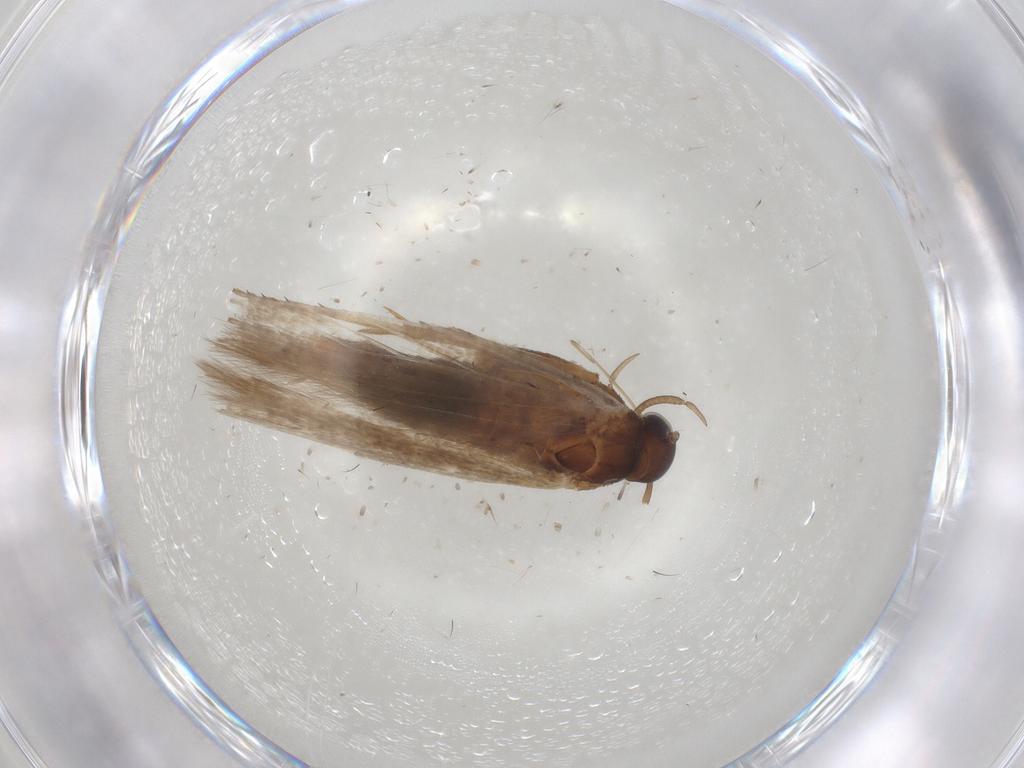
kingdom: Animalia
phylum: Arthropoda
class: Insecta
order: Lepidoptera
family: Gelechiidae
